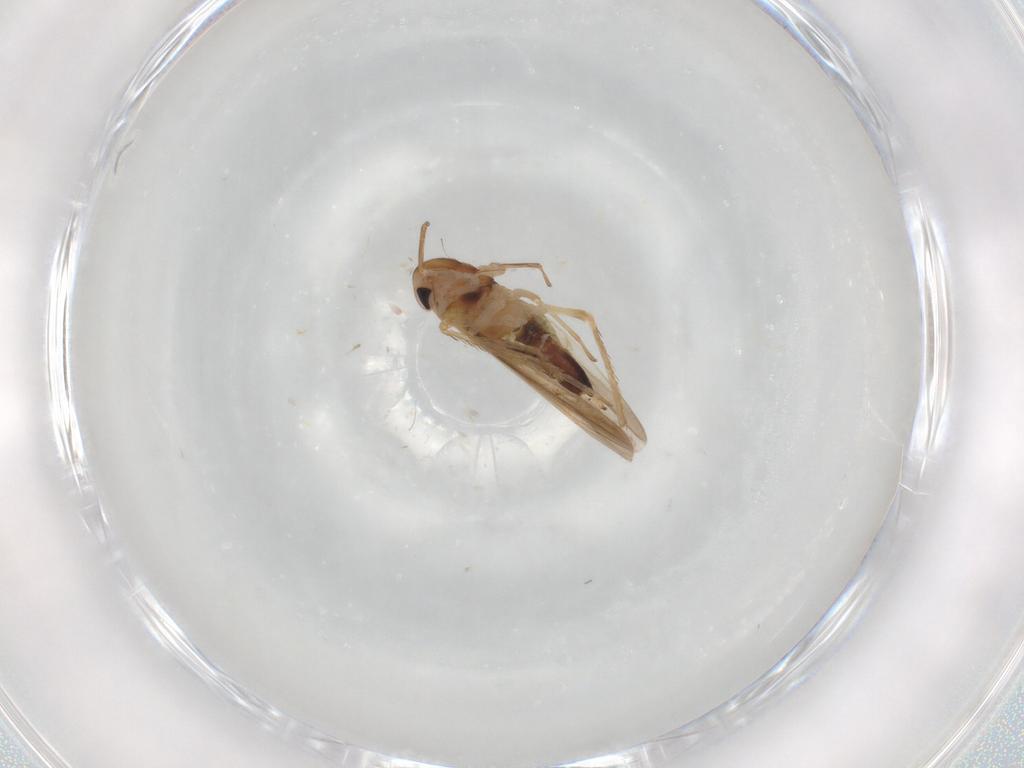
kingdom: Animalia
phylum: Arthropoda
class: Insecta
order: Hemiptera
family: Cicadellidae
